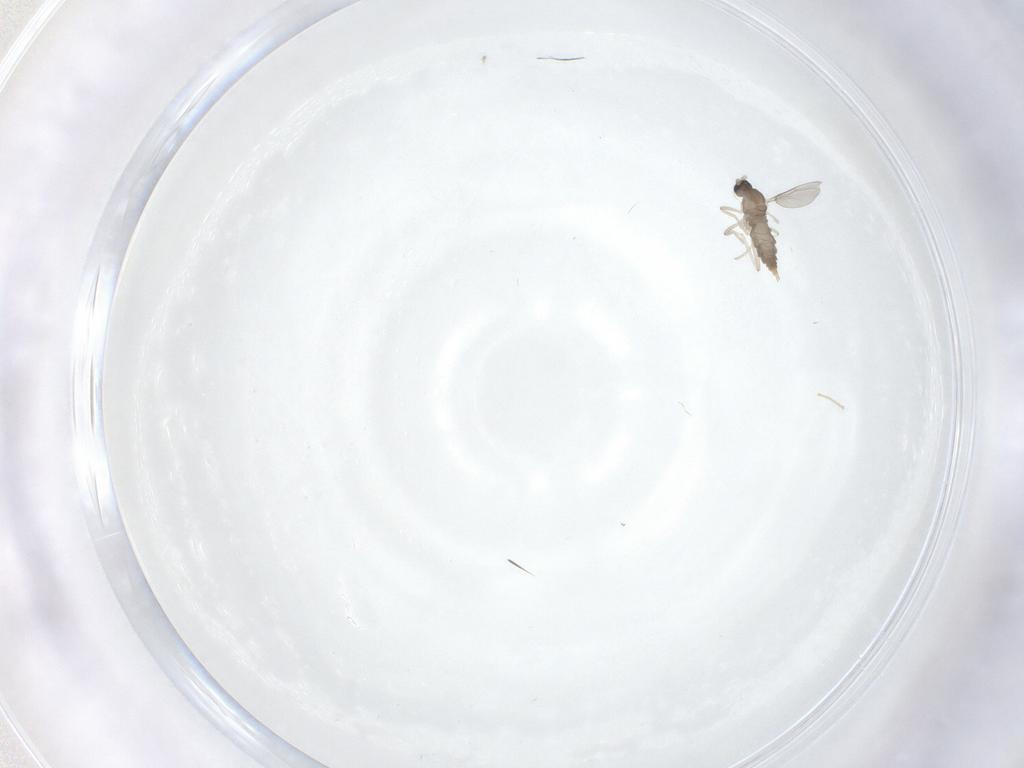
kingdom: Animalia
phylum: Arthropoda
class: Insecta
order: Diptera
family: Cecidomyiidae
